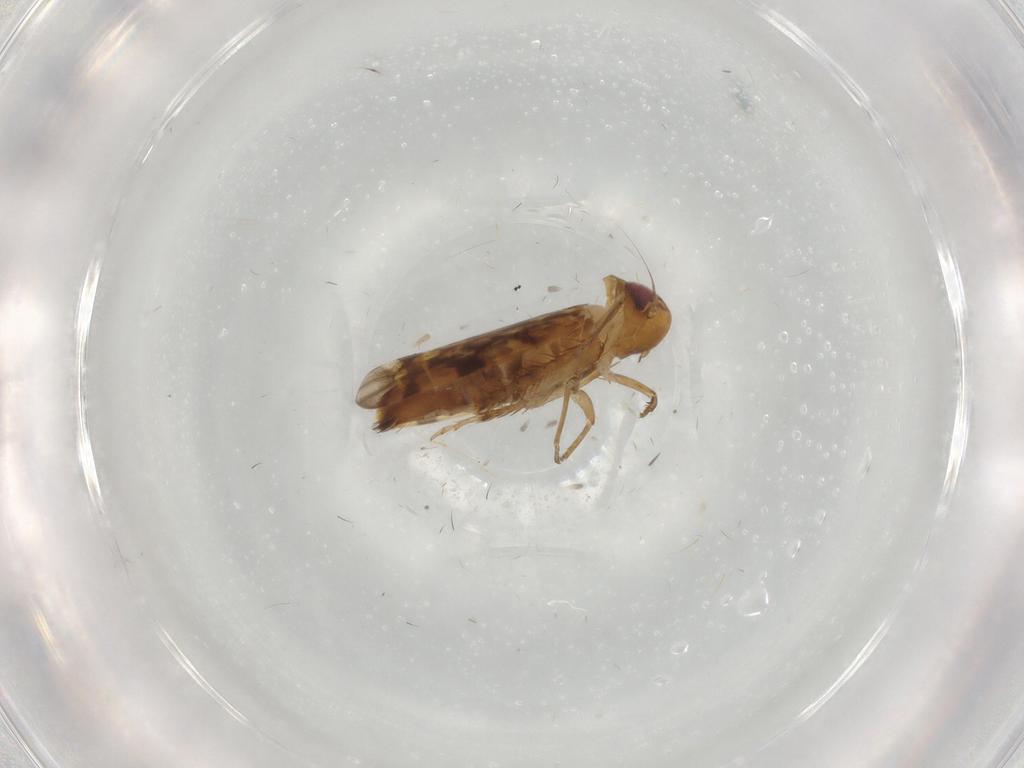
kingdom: Animalia
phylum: Arthropoda
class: Insecta
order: Hemiptera
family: Cicadellidae
